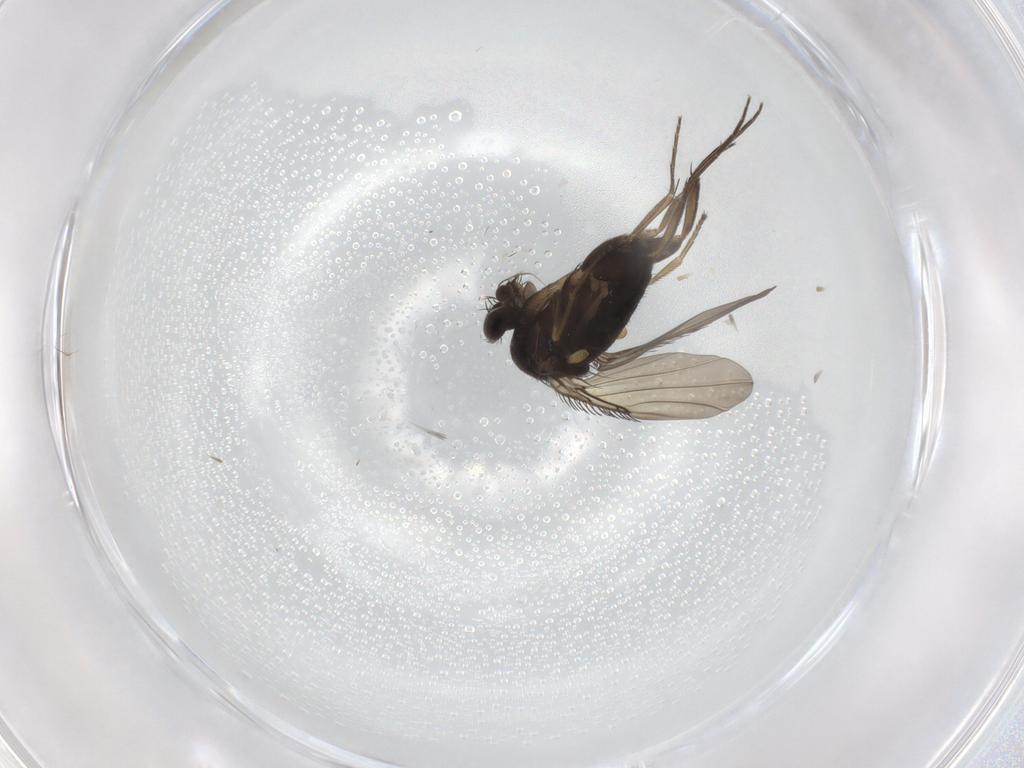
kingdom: Animalia
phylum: Arthropoda
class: Insecta
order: Diptera
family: Phoridae
